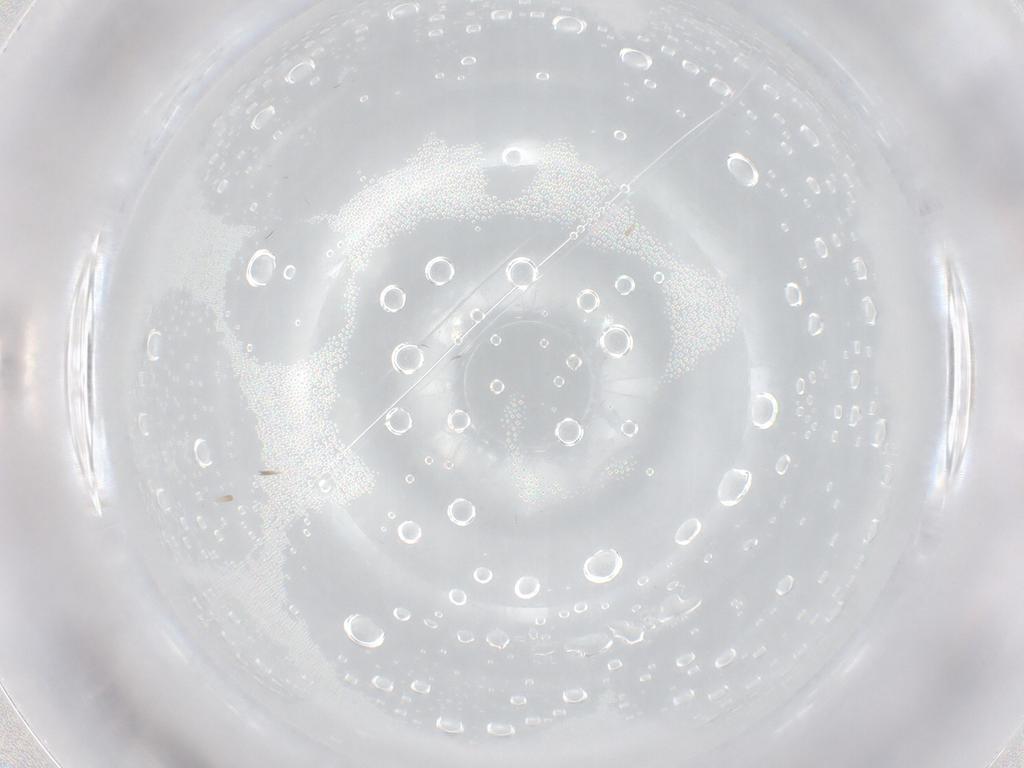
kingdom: Animalia
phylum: Arthropoda
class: Insecta
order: Diptera
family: Psychodidae
